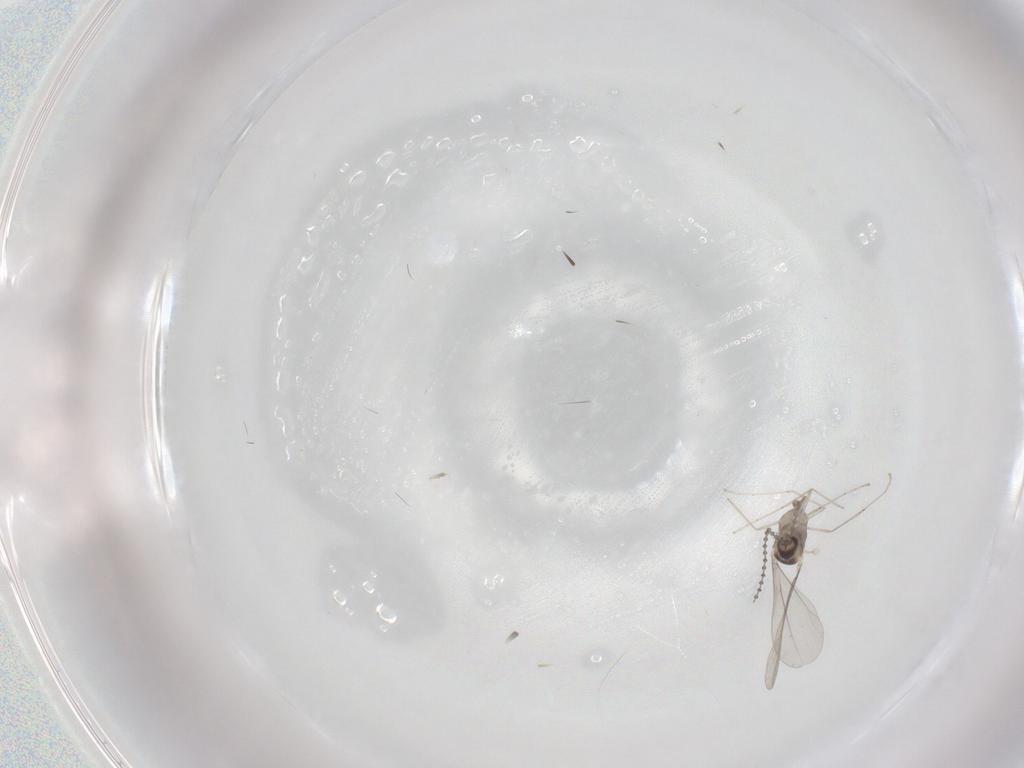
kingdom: Animalia
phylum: Arthropoda
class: Insecta
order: Diptera
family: Cecidomyiidae
